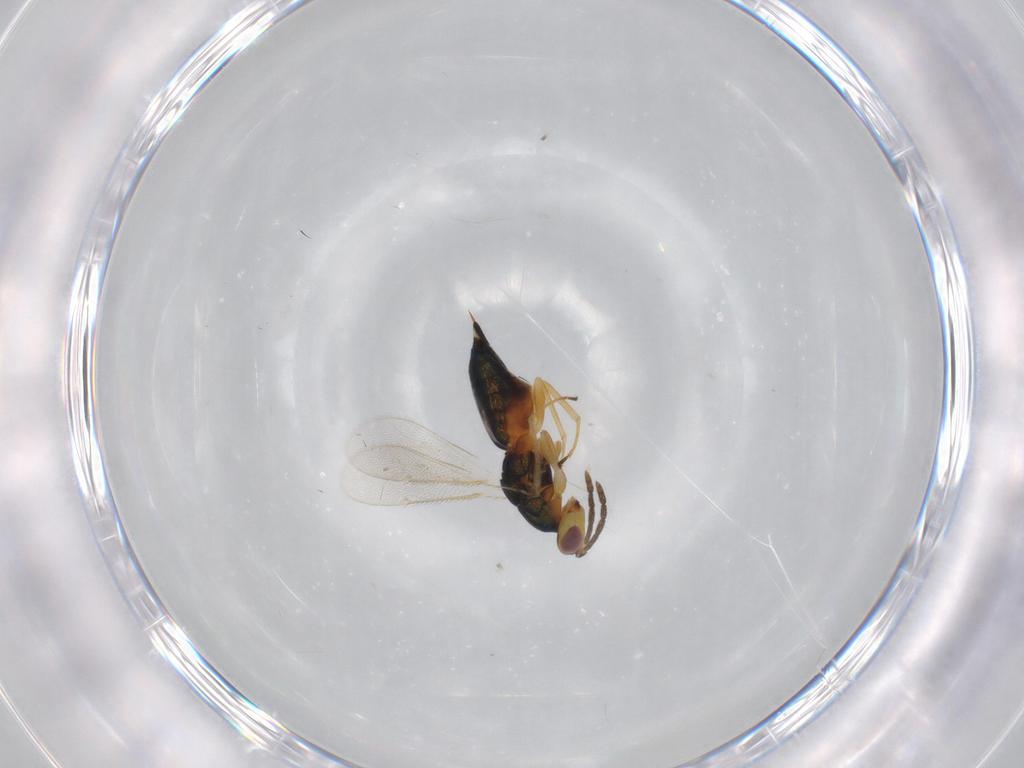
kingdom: Animalia
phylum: Arthropoda
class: Insecta
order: Hymenoptera
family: Eulophidae
